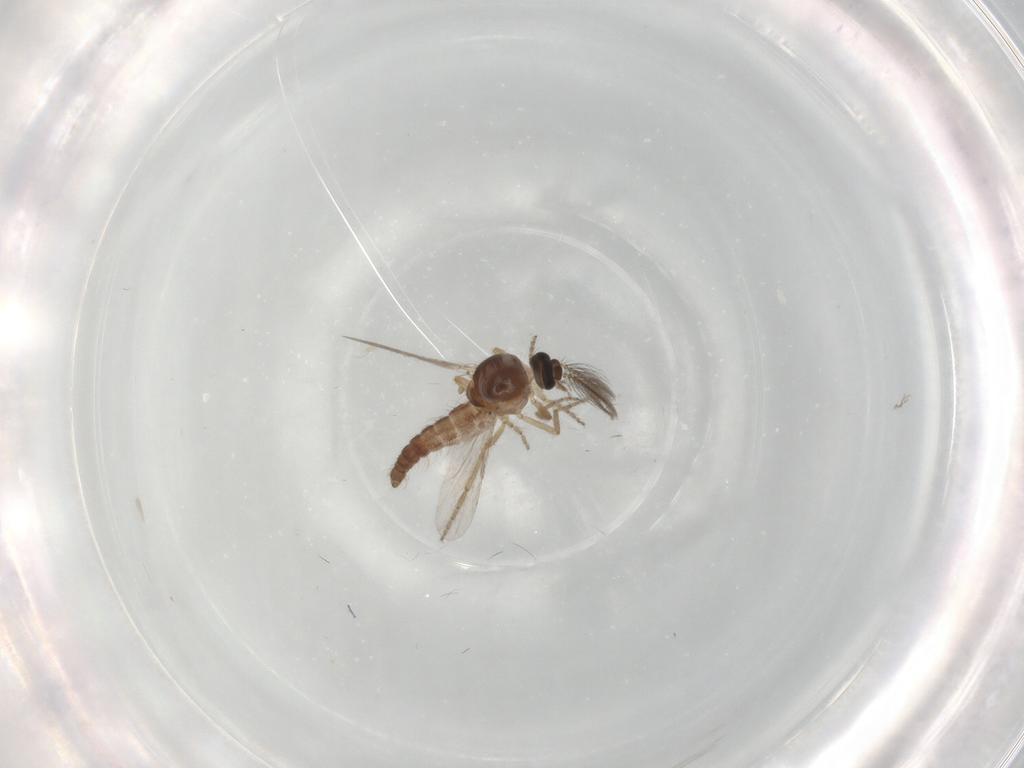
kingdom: Animalia
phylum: Arthropoda
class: Insecta
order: Diptera
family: Ceratopogonidae
